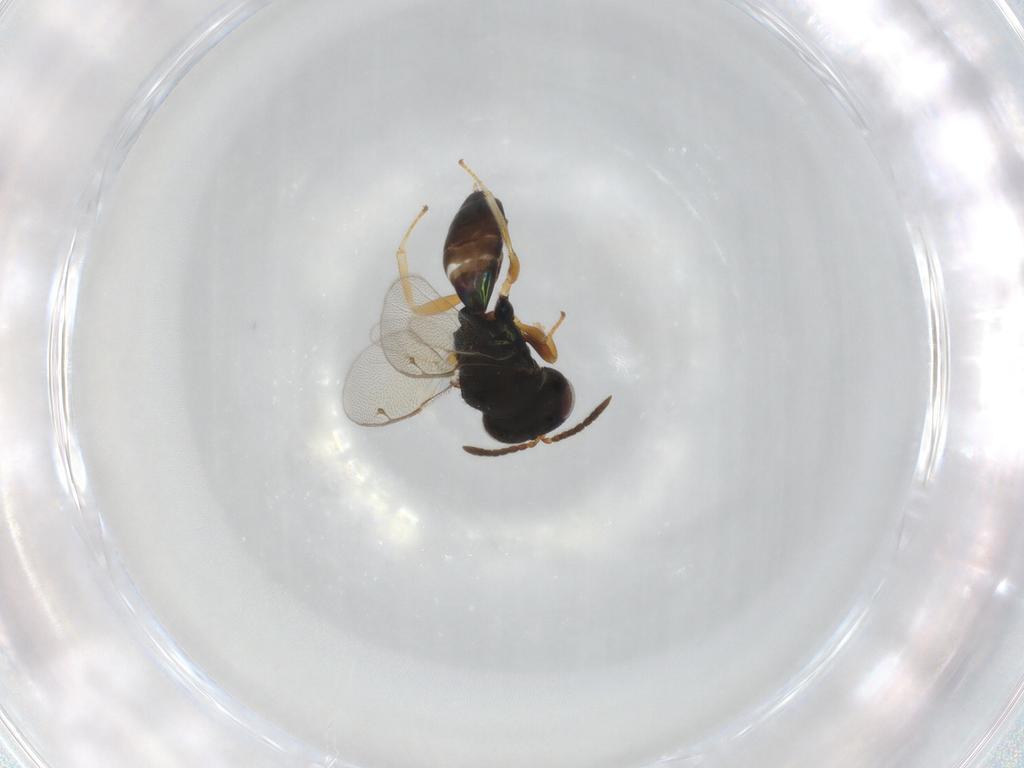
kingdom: Animalia
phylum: Arthropoda
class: Insecta
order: Hymenoptera
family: Pteromalidae
